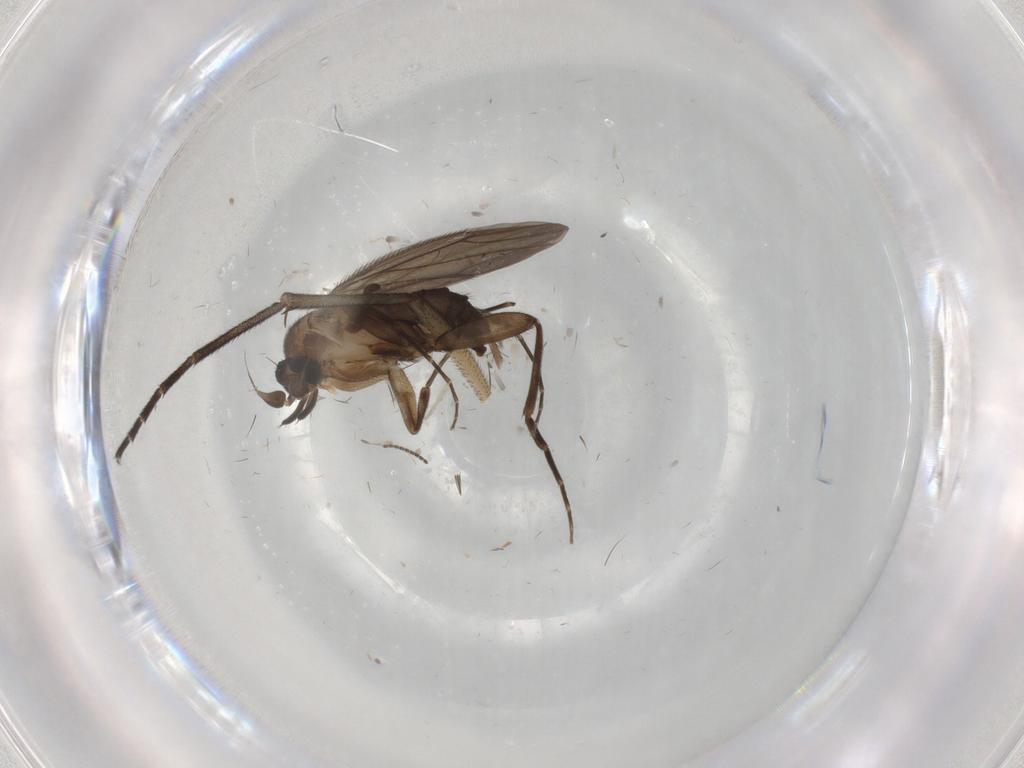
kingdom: Animalia
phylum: Arthropoda
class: Insecta
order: Diptera
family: Phoridae
